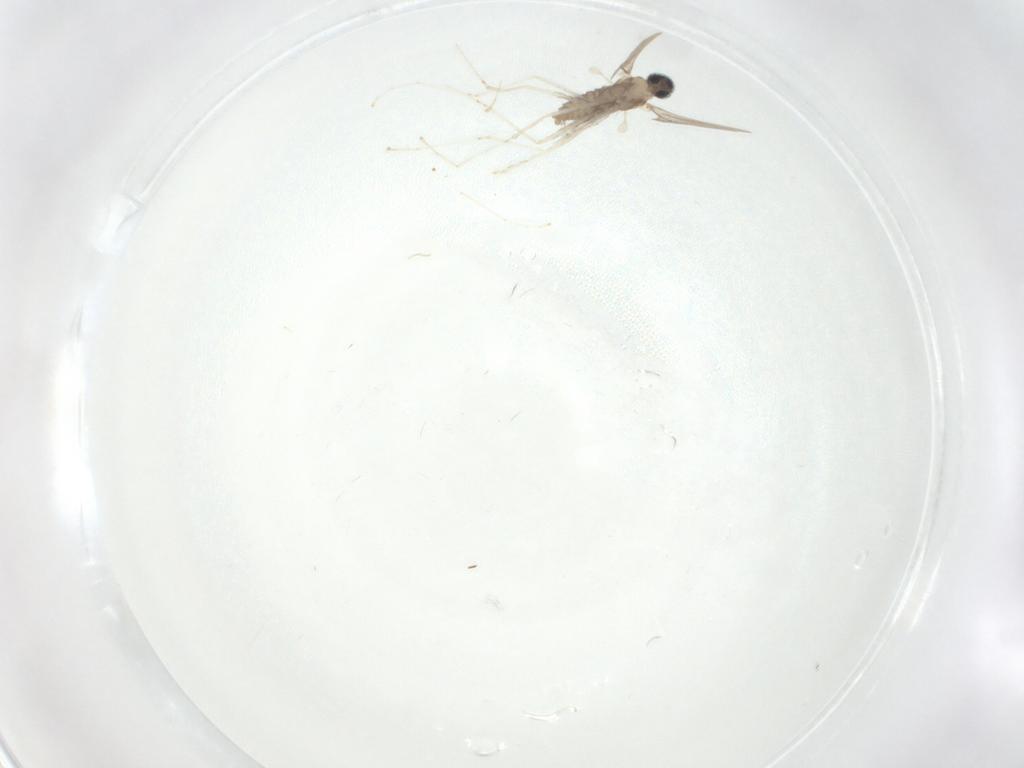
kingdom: Animalia
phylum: Arthropoda
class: Insecta
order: Diptera
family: Cecidomyiidae
